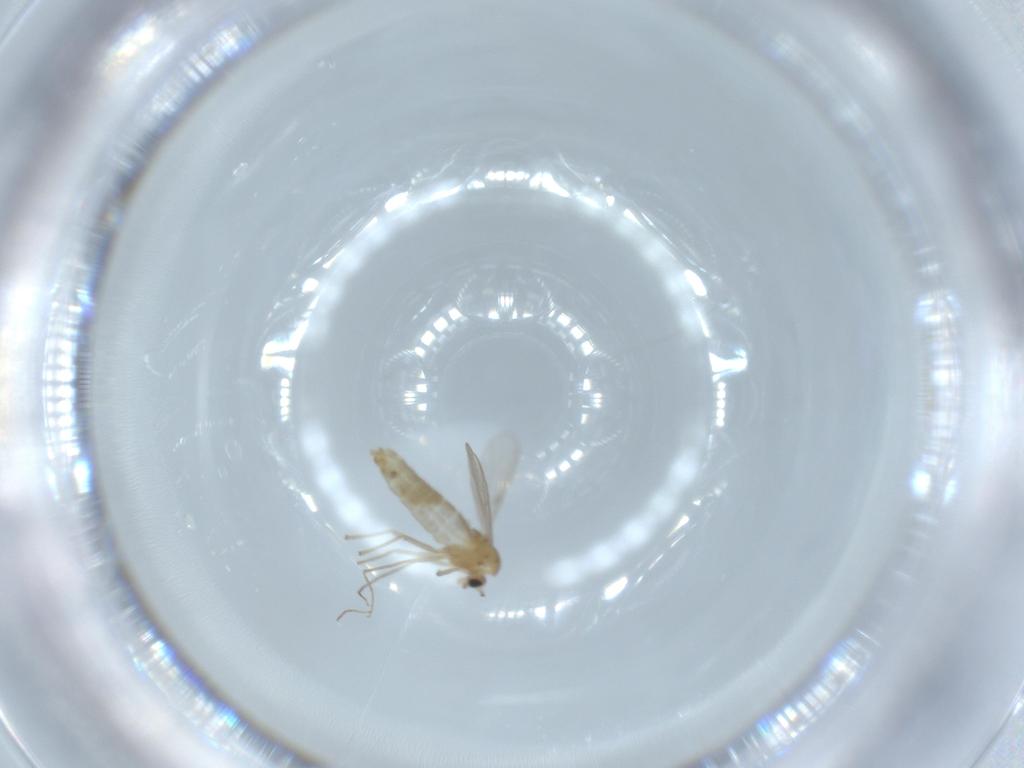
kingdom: Animalia
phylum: Arthropoda
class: Insecta
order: Diptera
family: Chironomidae
